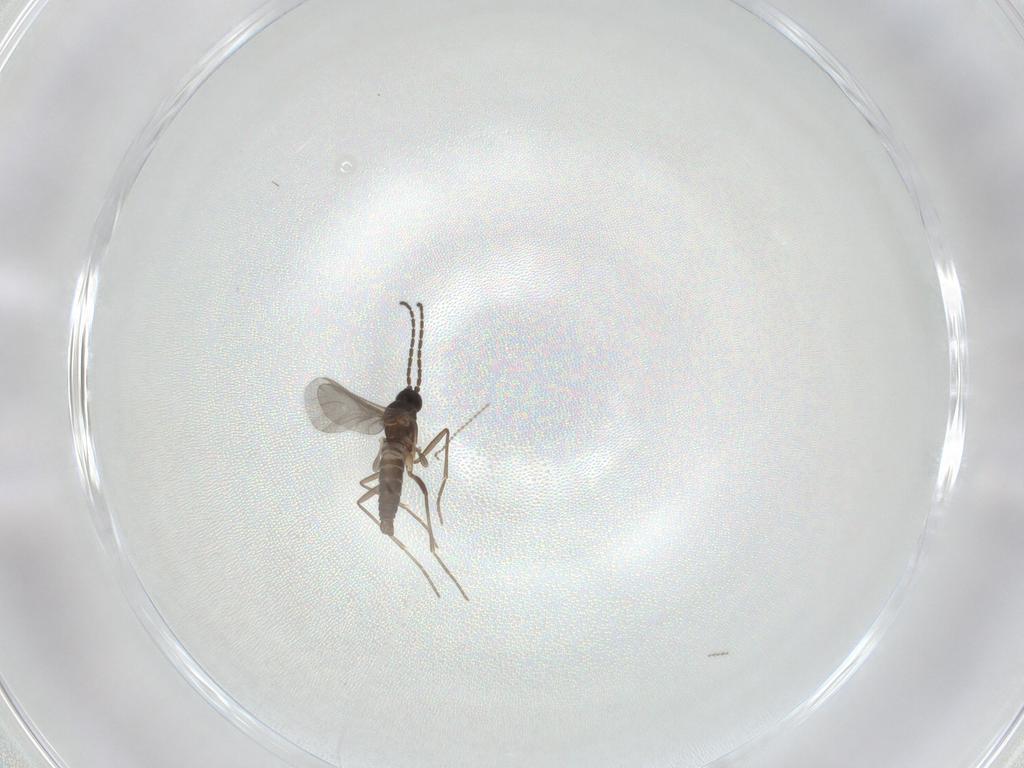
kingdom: Animalia
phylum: Arthropoda
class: Insecta
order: Diptera
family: Sciaridae
